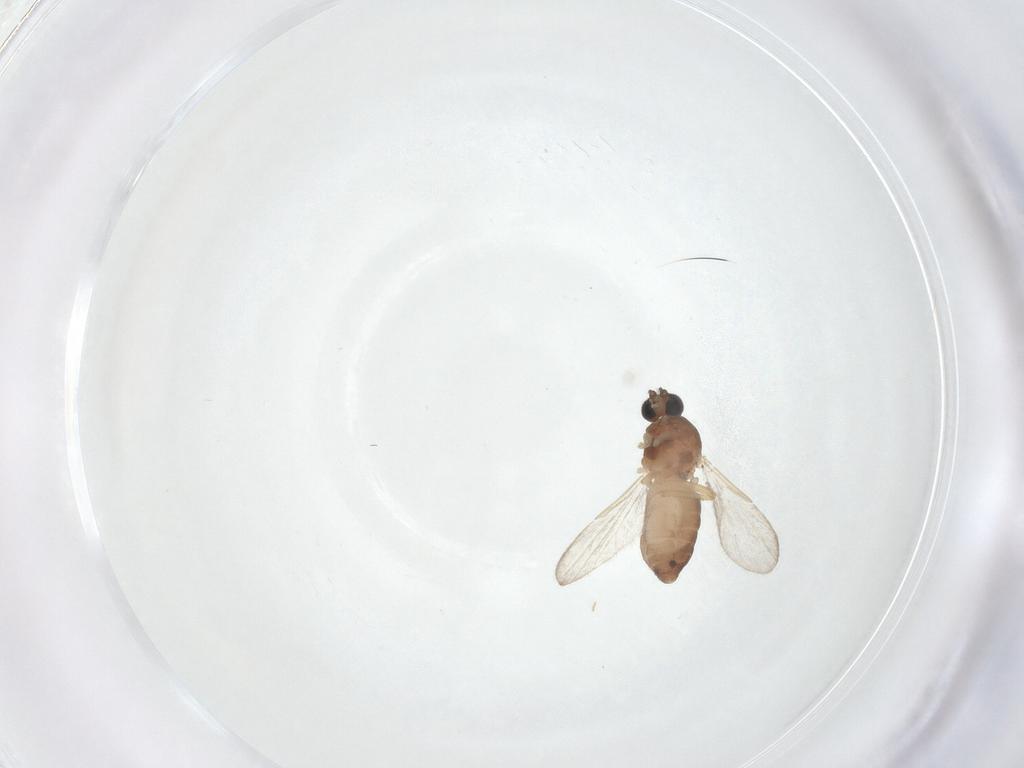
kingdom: Animalia
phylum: Arthropoda
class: Insecta
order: Diptera
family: Ceratopogonidae
